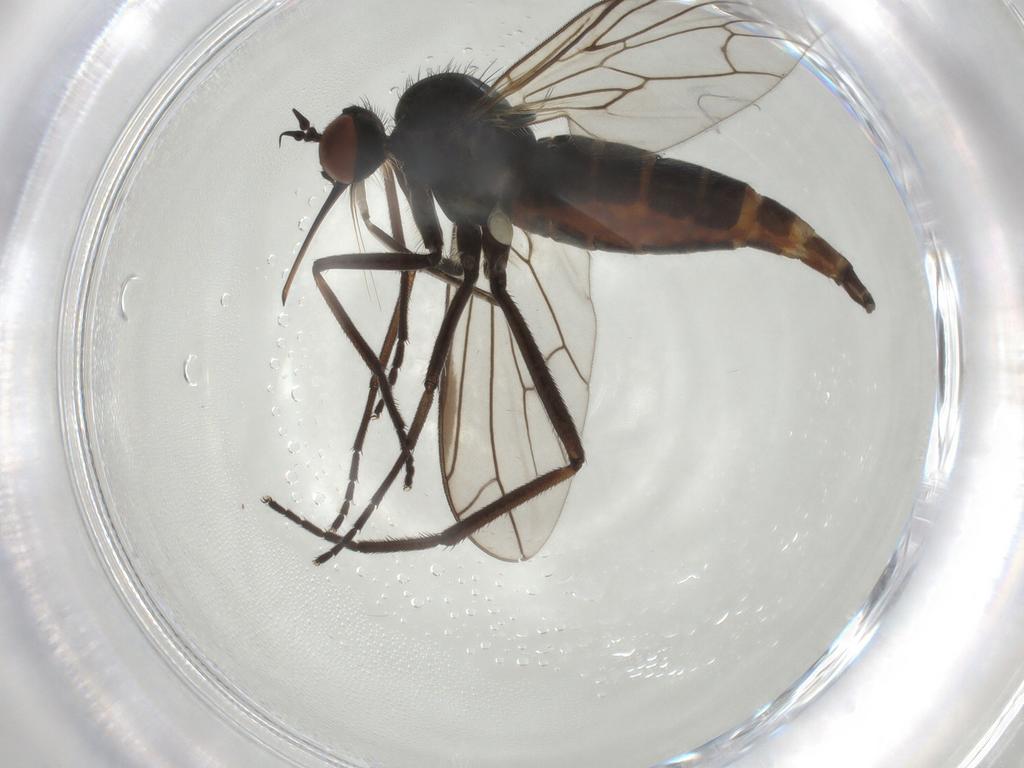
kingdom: Animalia
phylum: Arthropoda
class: Insecta
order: Diptera
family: Empididae
